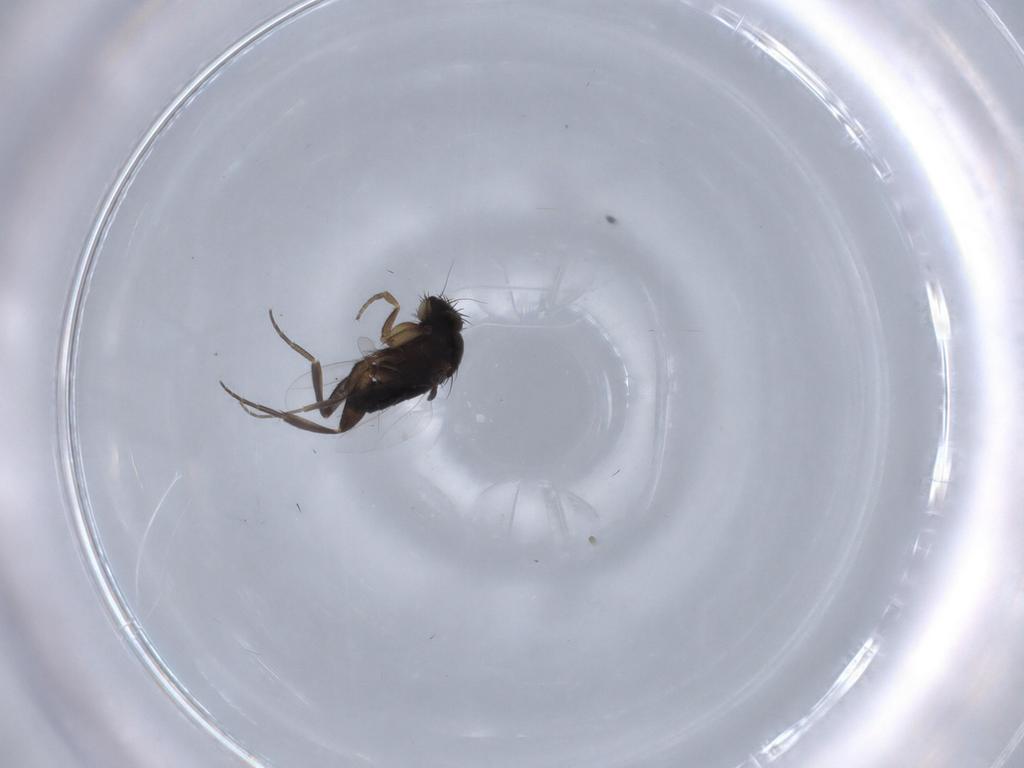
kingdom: Animalia
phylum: Arthropoda
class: Insecta
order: Diptera
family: Phoridae
